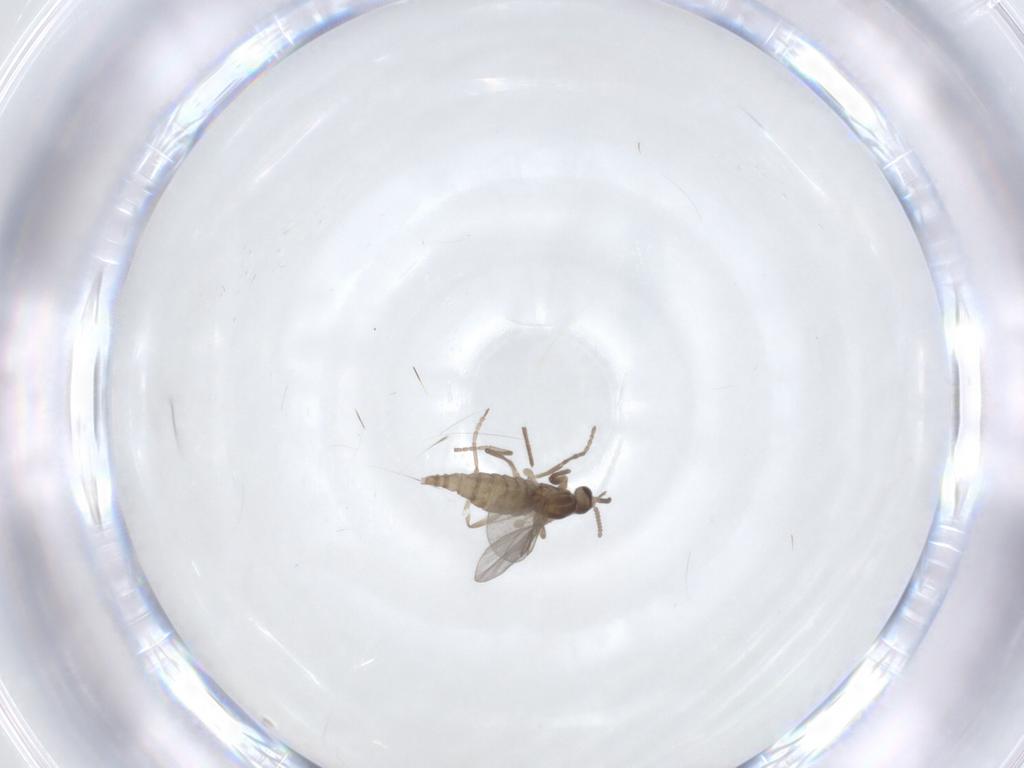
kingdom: Animalia
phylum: Arthropoda
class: Insecta
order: Diptera
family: Cecidomyiidae
